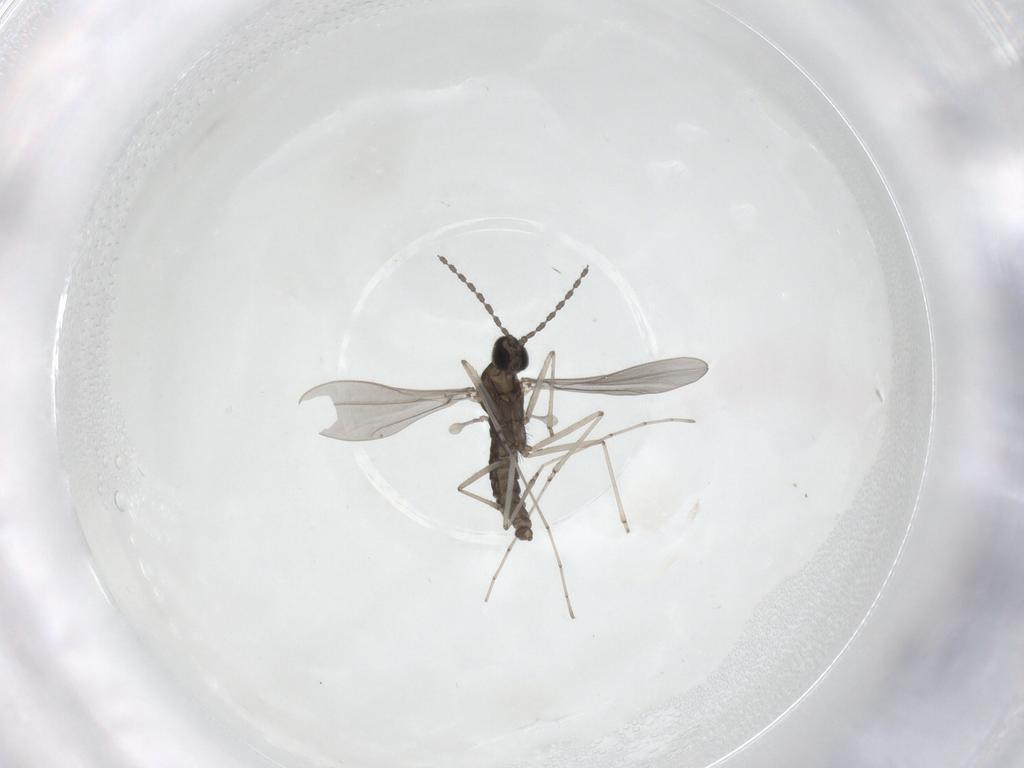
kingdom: Animalia
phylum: Arthropoda
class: Insecta
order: Diptera
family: Cecidomyiidae
